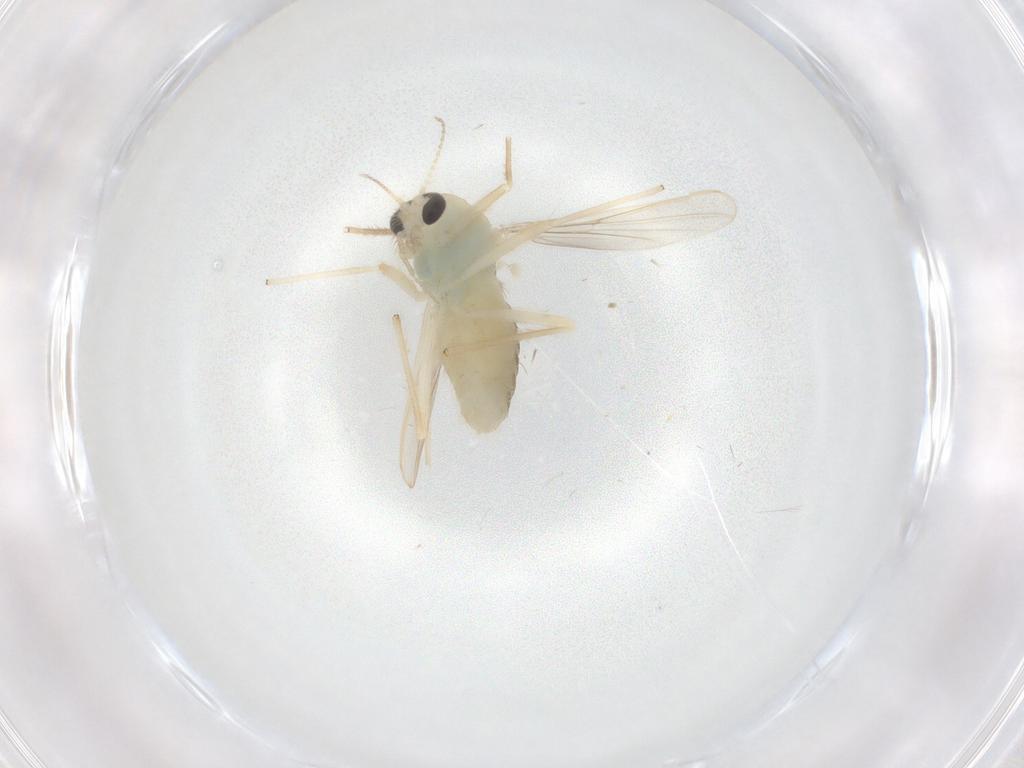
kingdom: Animalia
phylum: Arthropoda
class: Insecta
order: Diptera
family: Chironomidae
